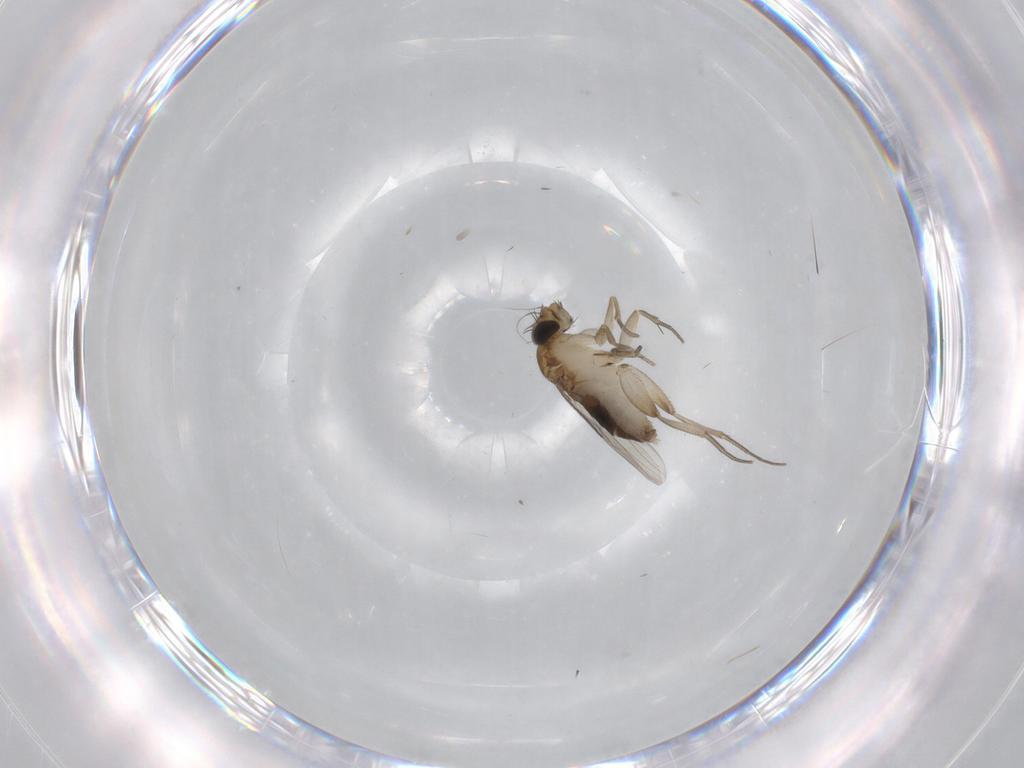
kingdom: Animalia
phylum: Arthropoda
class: Insecta
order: Diptera
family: Phoridae
